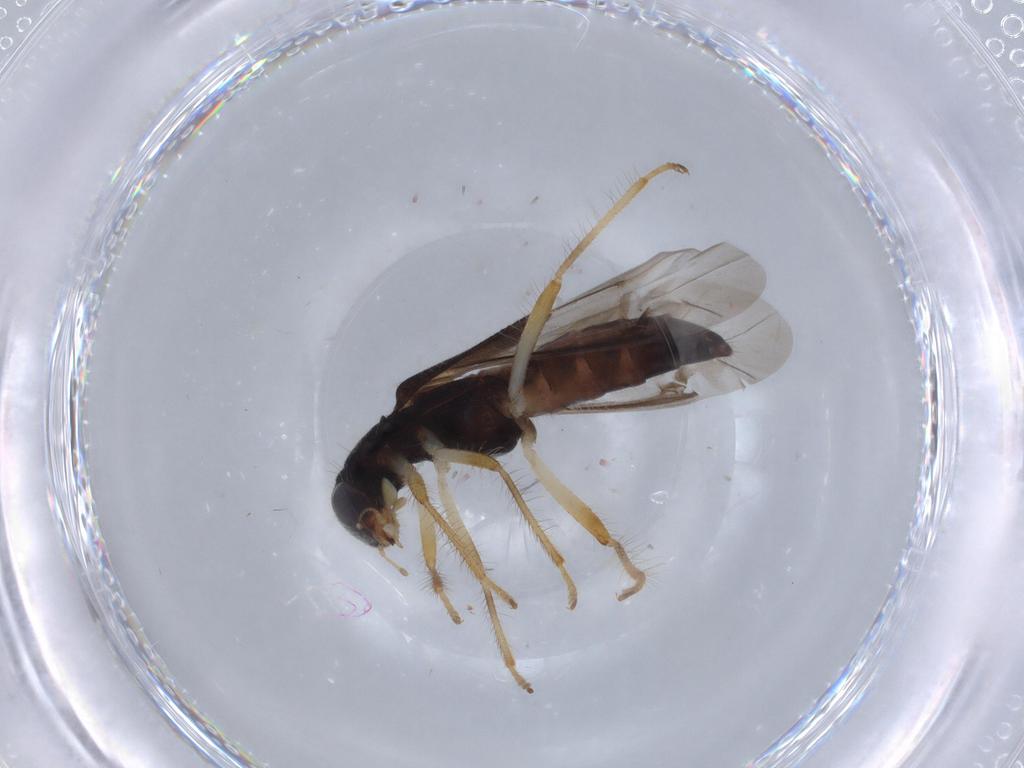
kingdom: Animalia
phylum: Arthropoda
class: Insecta
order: Coleoptera
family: Cleridae
